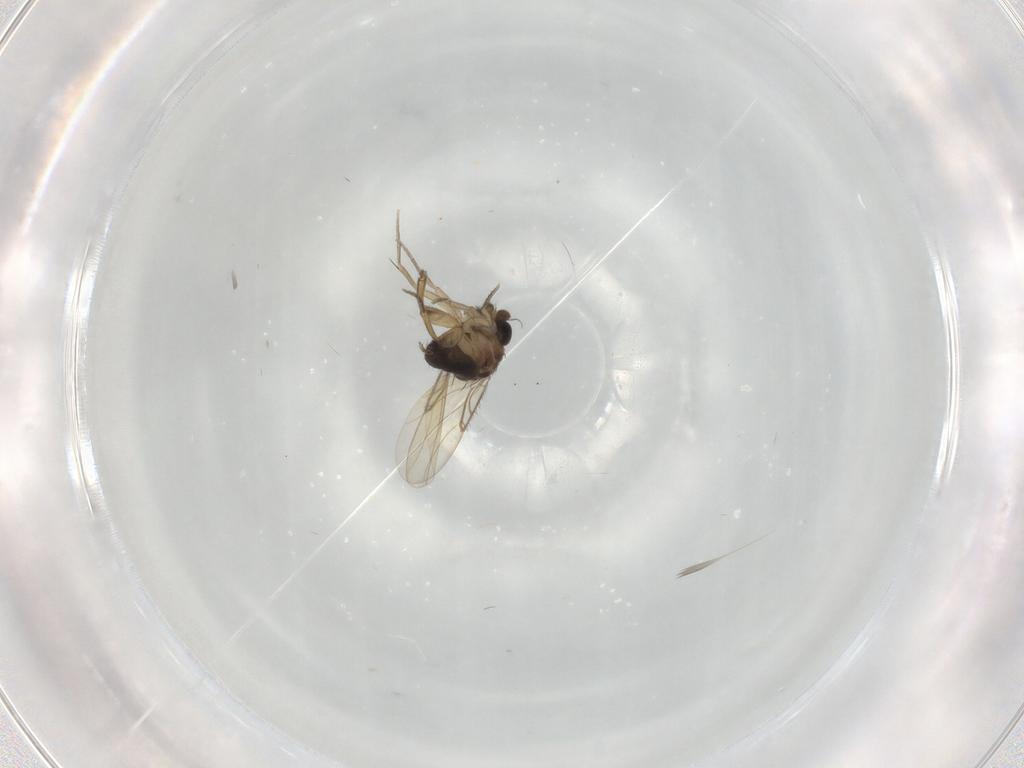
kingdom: Animalia
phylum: Arthropoda
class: Insecta
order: Diptera
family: Phoridae
